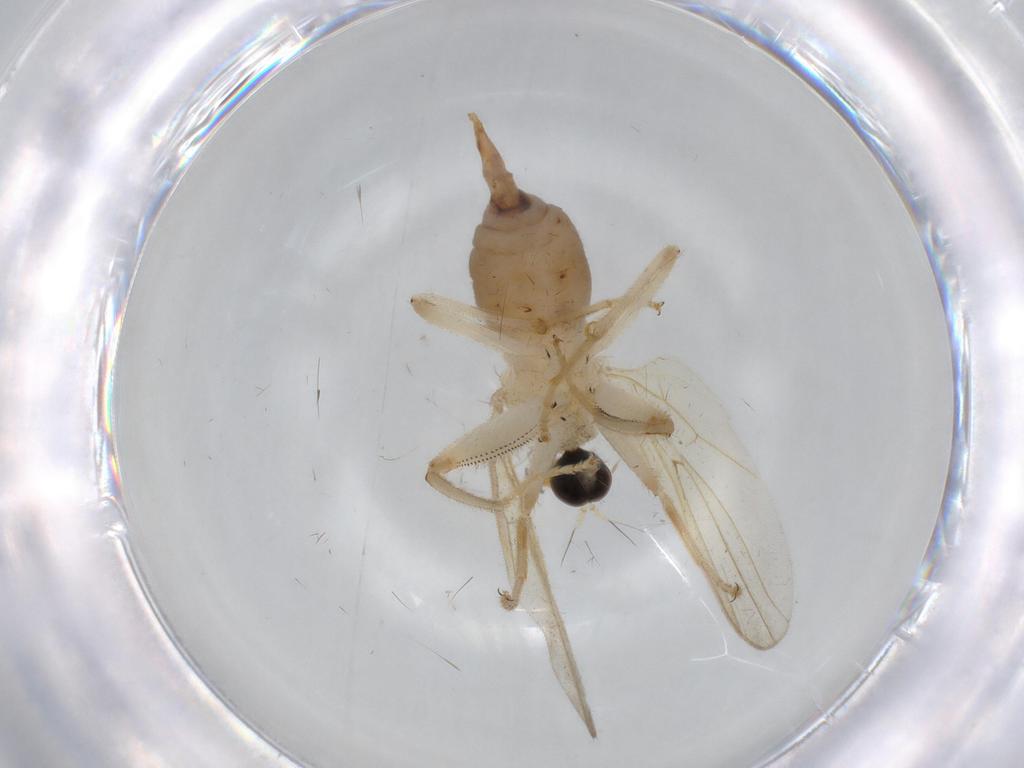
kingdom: Animalia
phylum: Arthropoda
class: Insecta
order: Diptera
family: Hybotidae
